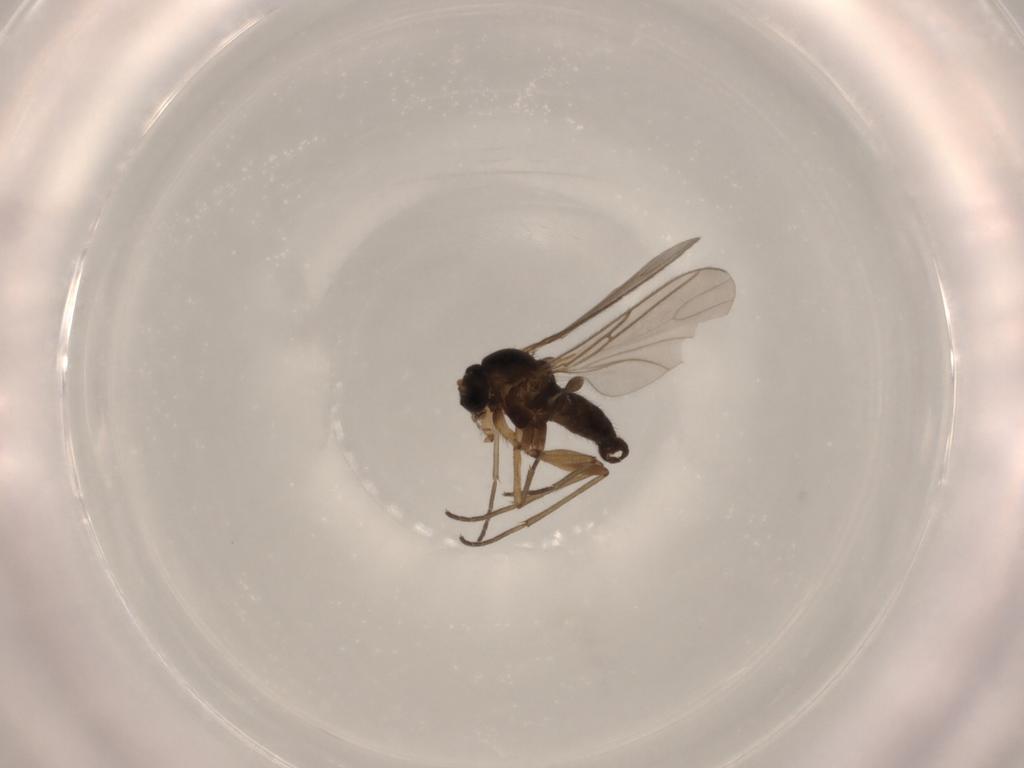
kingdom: Animalia
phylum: Arthropoda
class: Insecta
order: Diptera
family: Sciaridae
